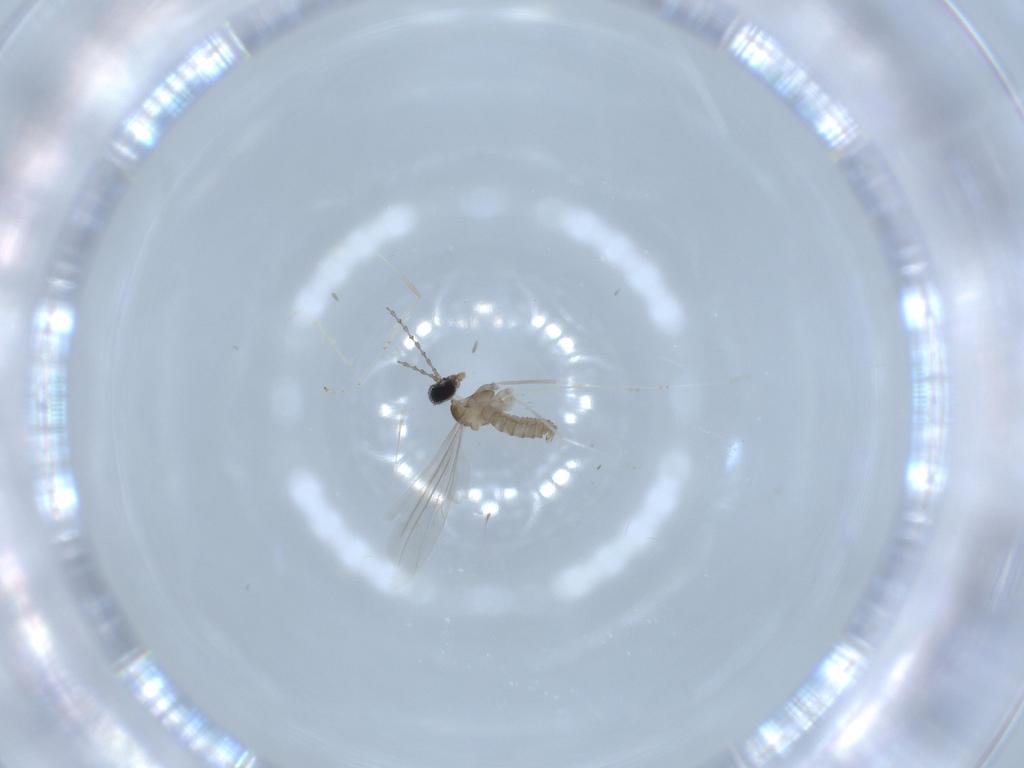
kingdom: Animalia
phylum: Arthropoda
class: Insecta
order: Diptera
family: Cecidomyiidae
